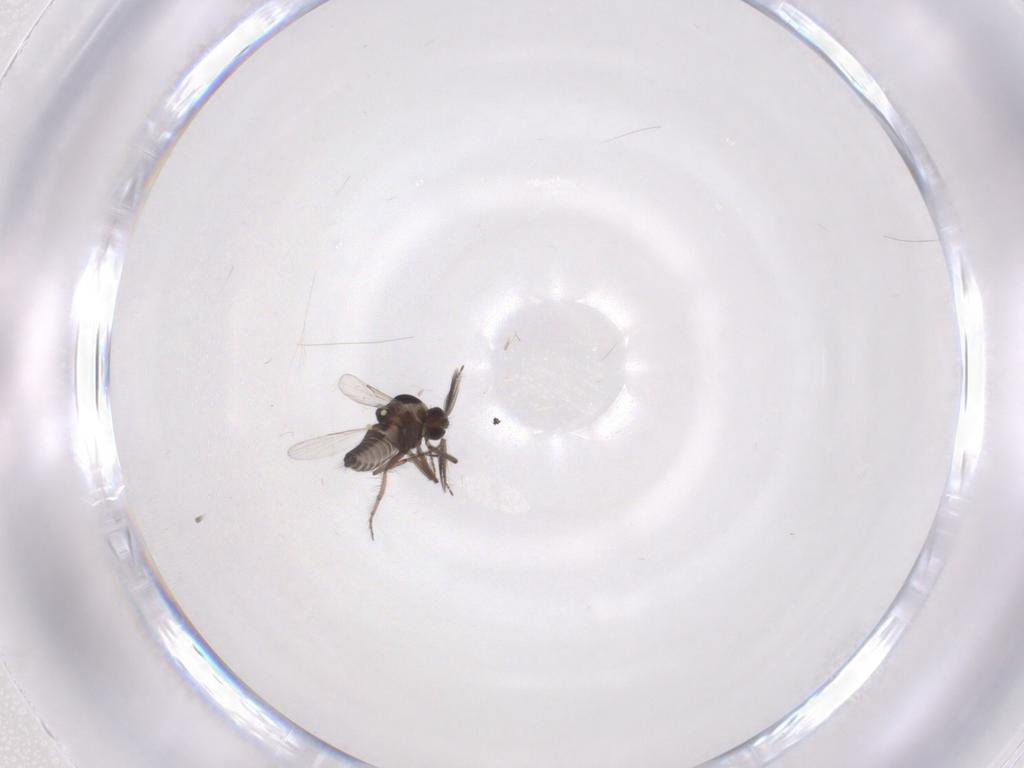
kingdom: Animalia
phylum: Arthropoda
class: Insecta
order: Diptera
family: Ceratopogonidae
